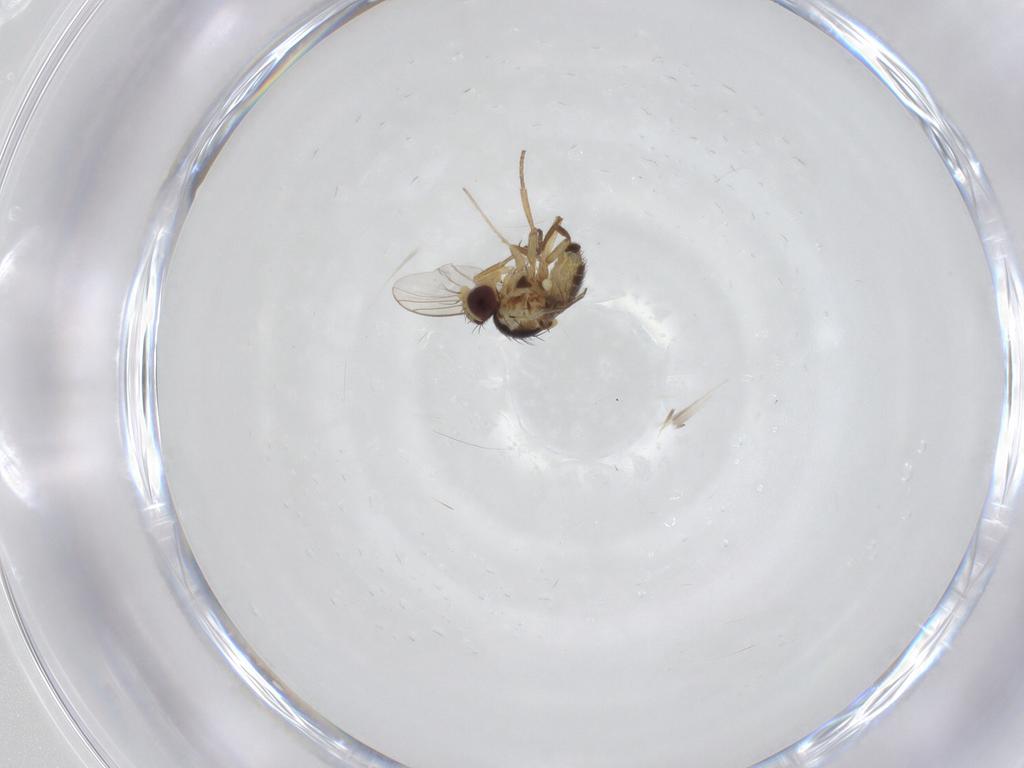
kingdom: Animalia
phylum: Arthropoda
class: Insecta
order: Diptera
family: Agromyzidae
